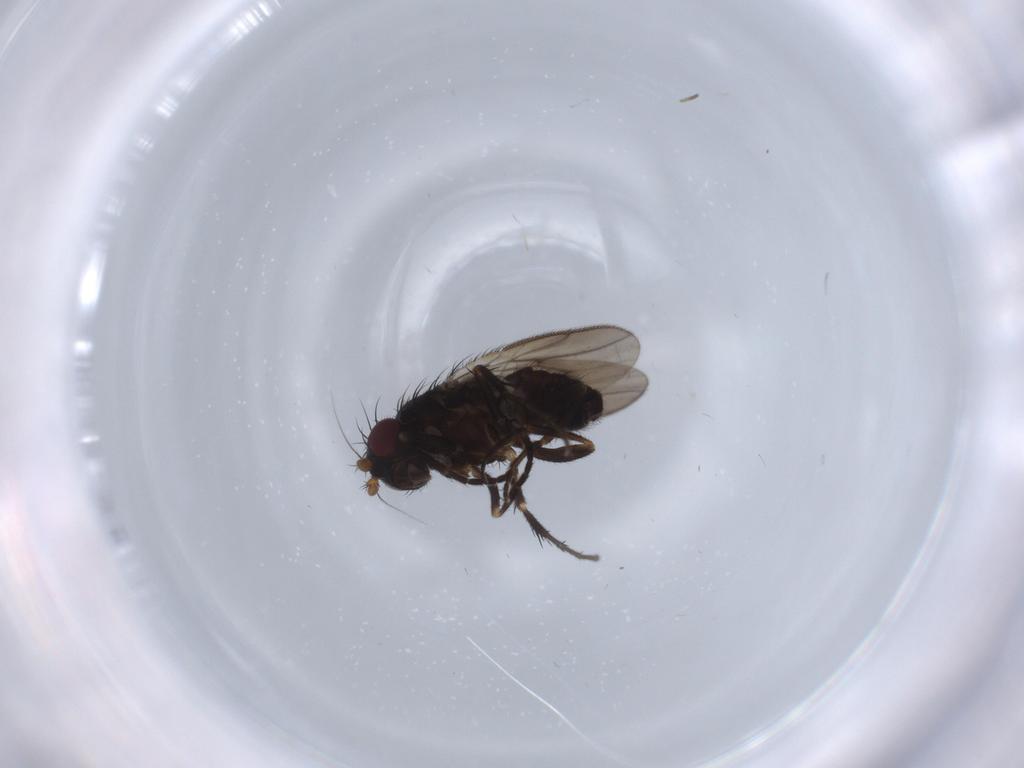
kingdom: Animalia
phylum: Arthropoda
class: Insecta
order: Diptera
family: Milichiidae
